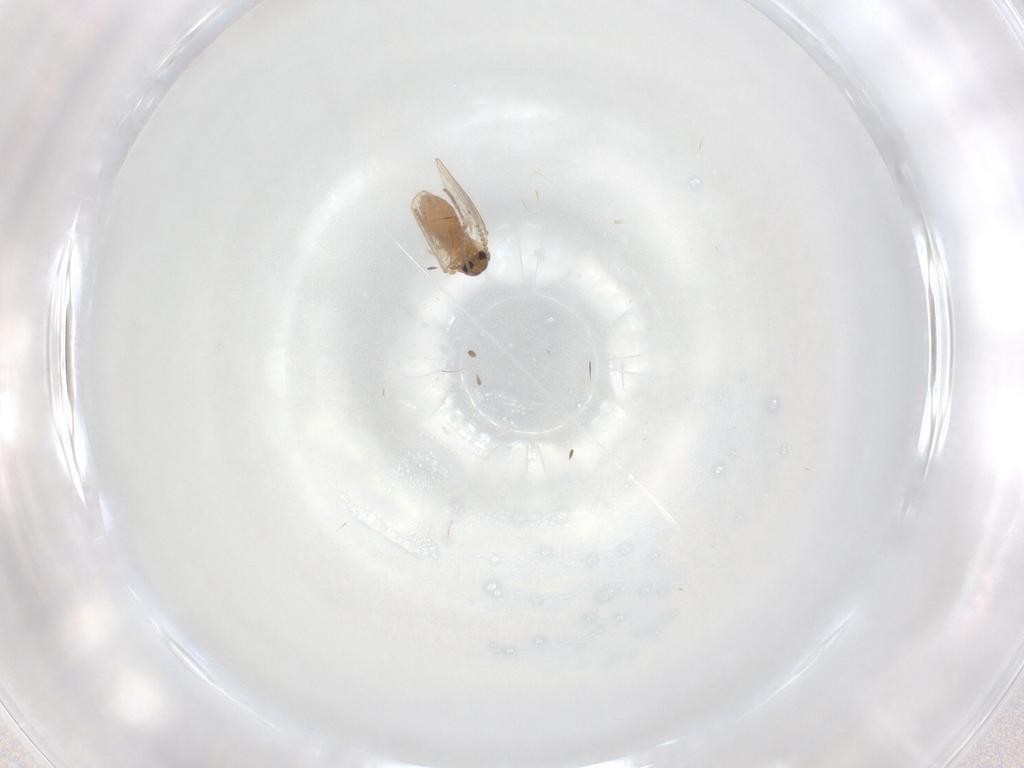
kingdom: Animalia
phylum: Arthropoda
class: Insecta
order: Diptera
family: Psychodidae
